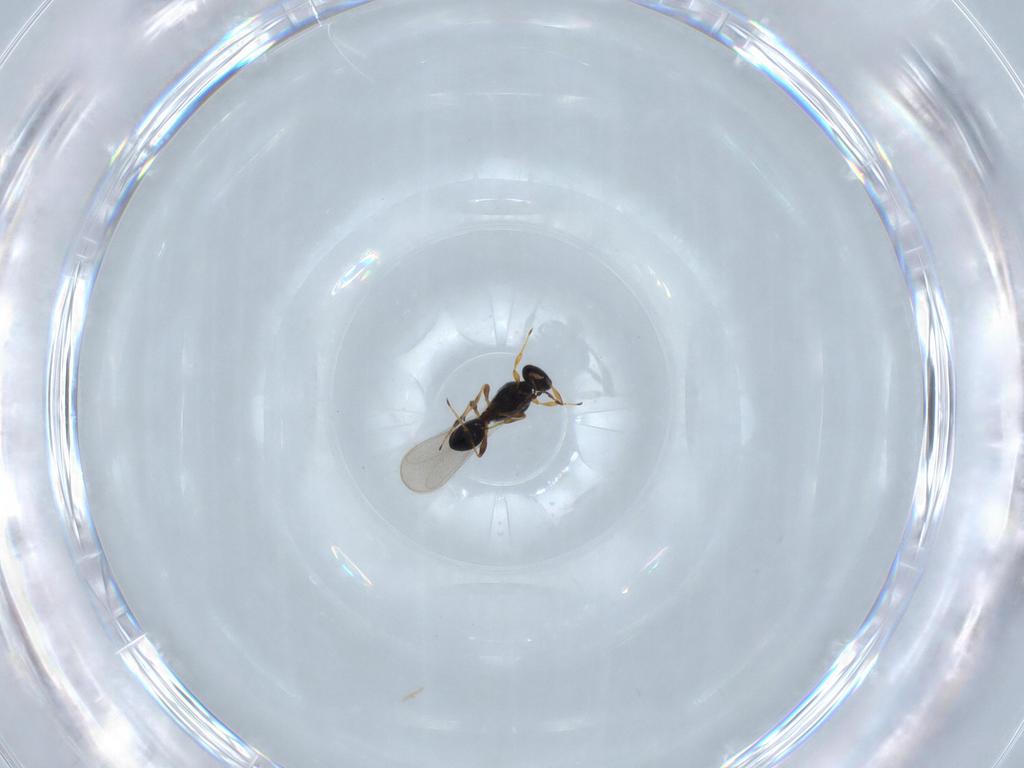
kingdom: Animalia
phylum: Arthropoda
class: Insecta
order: Hymenoptera
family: Platygastridae
